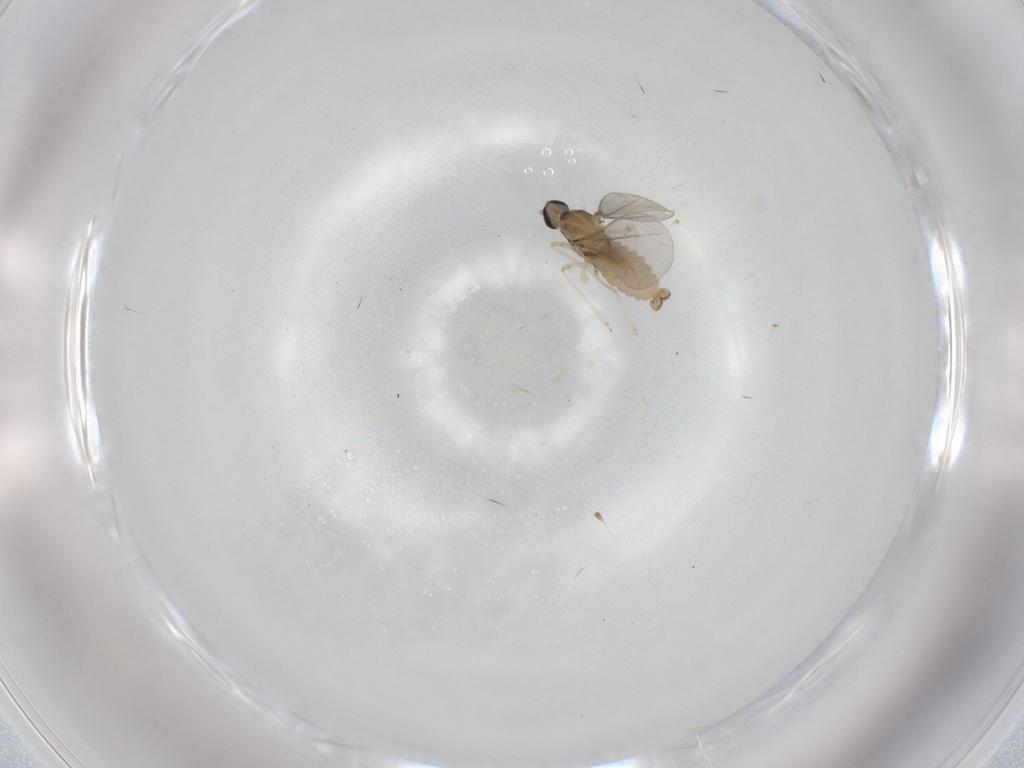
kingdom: Animalia
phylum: Arthropoda
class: Insecta
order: Diptera
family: Cecidomyiidae
